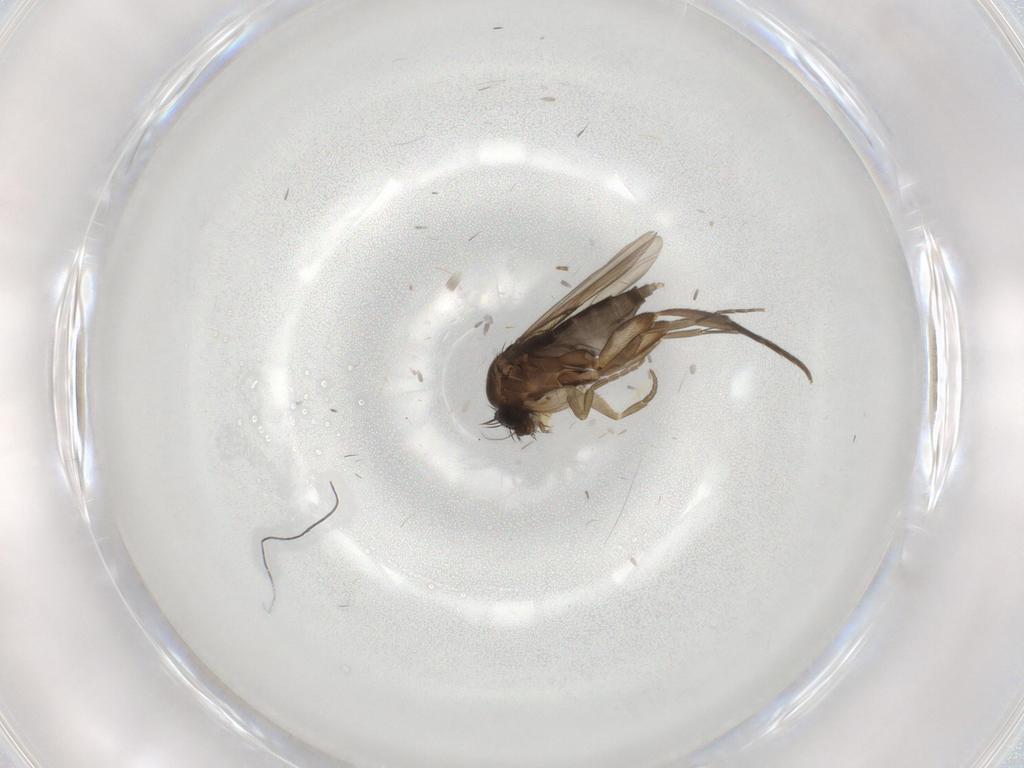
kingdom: Animalia
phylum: Arthropoda
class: Insecta
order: Diptera
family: Phoridae
